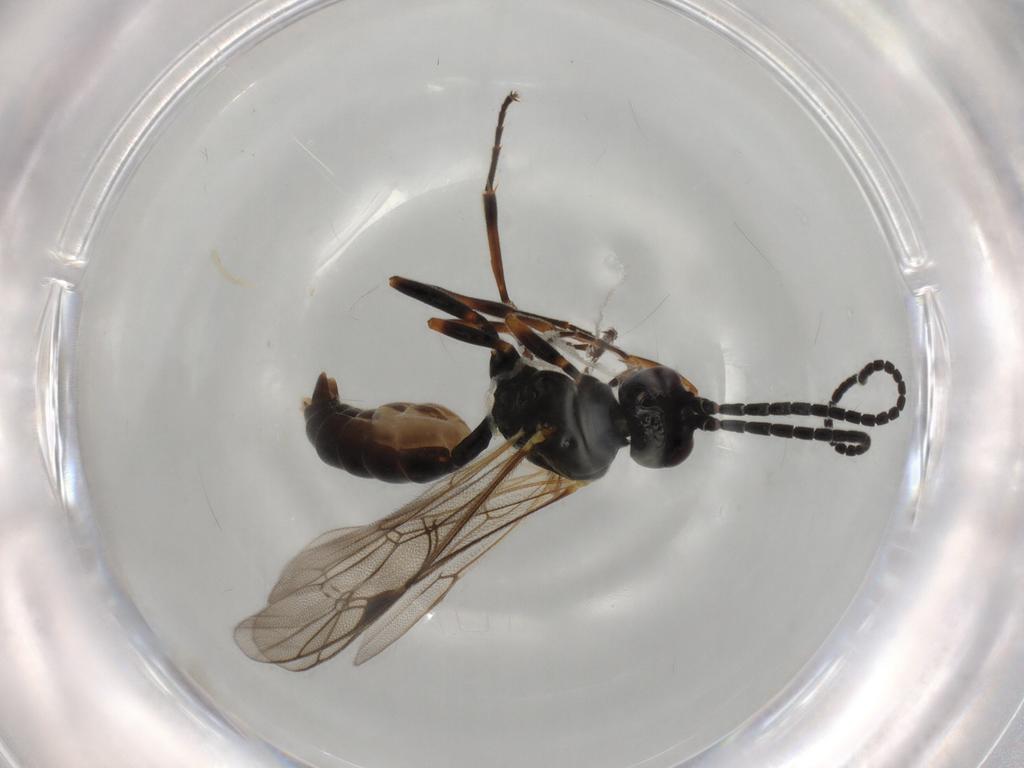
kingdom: Animalia
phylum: Arthropoda
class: Insecta
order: Hymenoptera
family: Ichneumonidae
